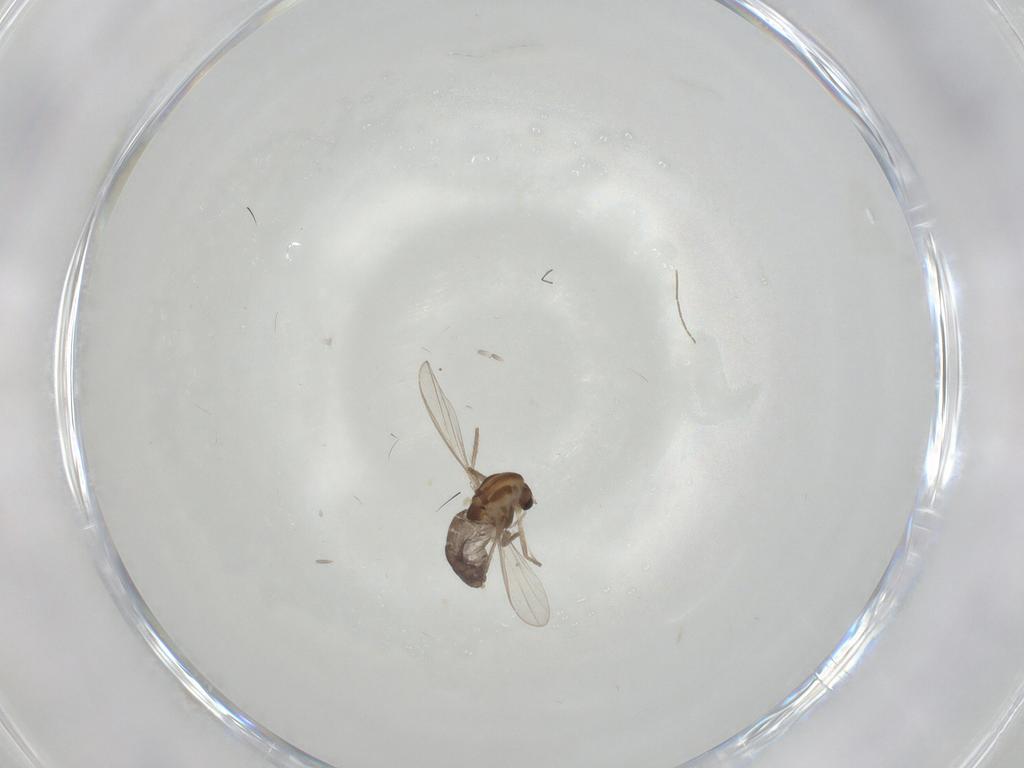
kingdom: Animalia
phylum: Arthropoda
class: Insecta
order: Diptera
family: Chironomidae
